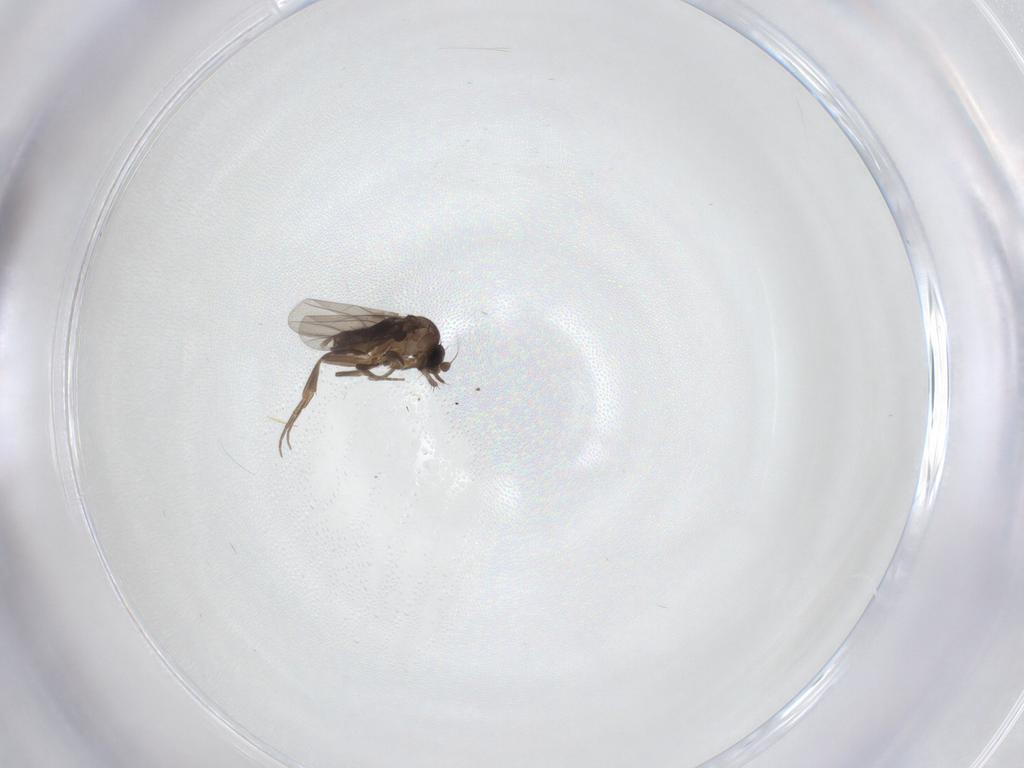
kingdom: Animalia
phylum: Arthropoda
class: Insecta
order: Diptera
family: Phoridae
